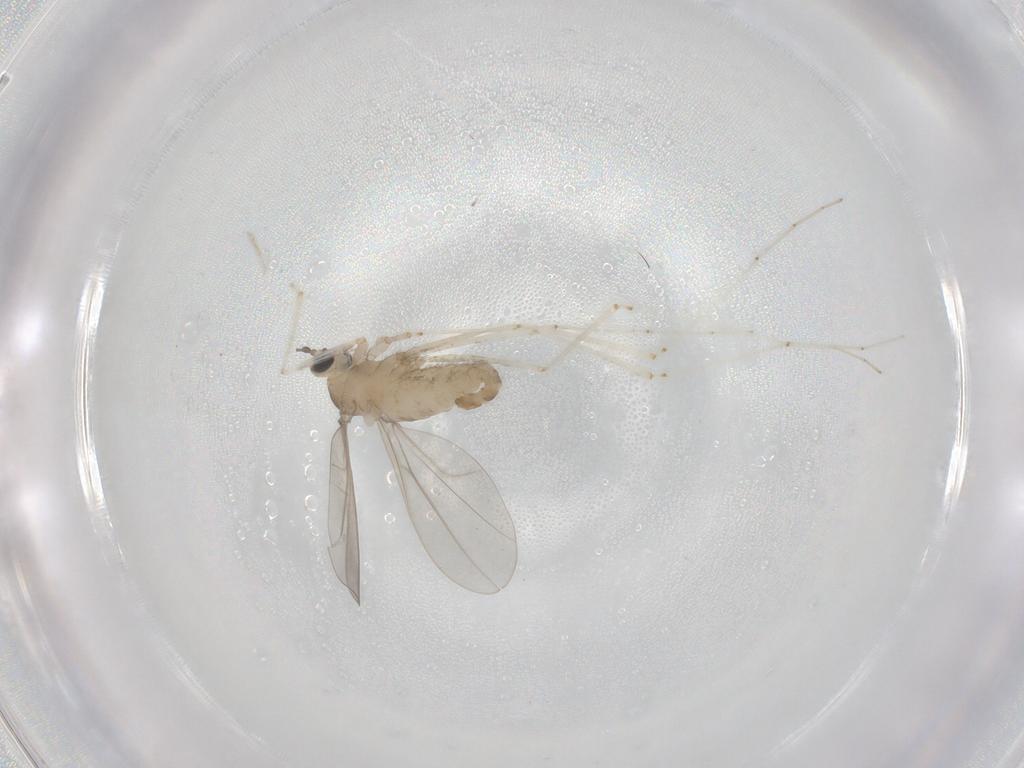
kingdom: Animalia
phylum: Arthropoda
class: Insecta
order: Diptera
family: Cecidomyiidae
